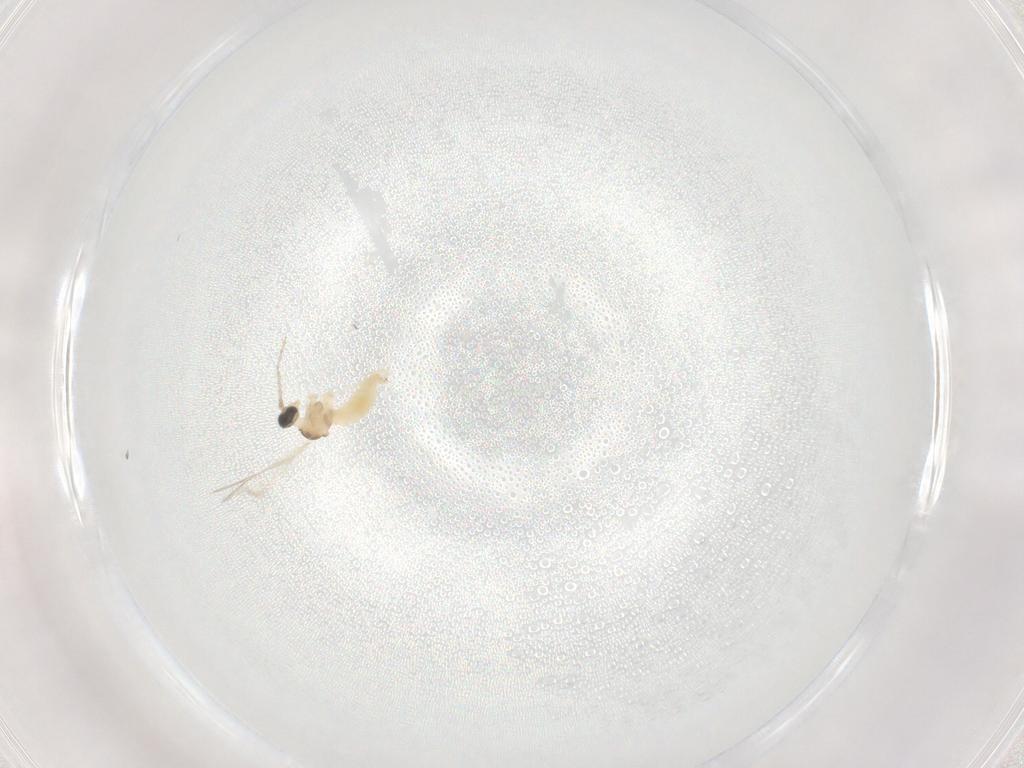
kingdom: Animalia
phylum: Arthropoda
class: Insecta
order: Diptera
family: Cecidomyiidae
